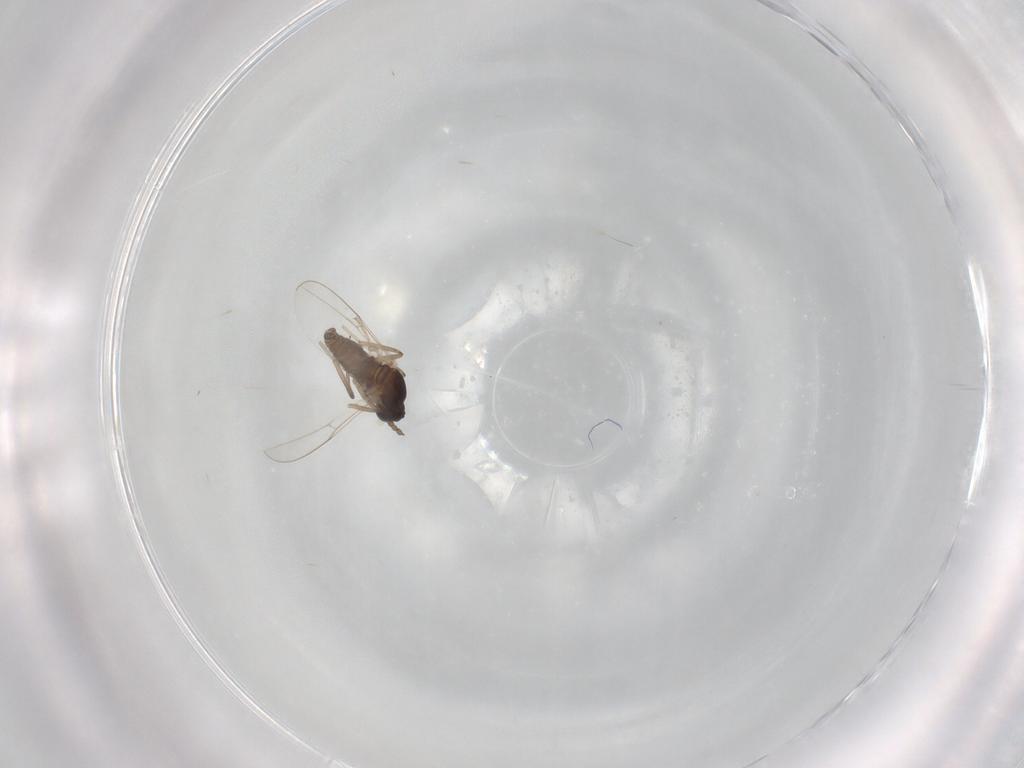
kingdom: Animalia
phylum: Arthropoda
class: Insecta
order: Diptera
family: Cecidomyiidae
